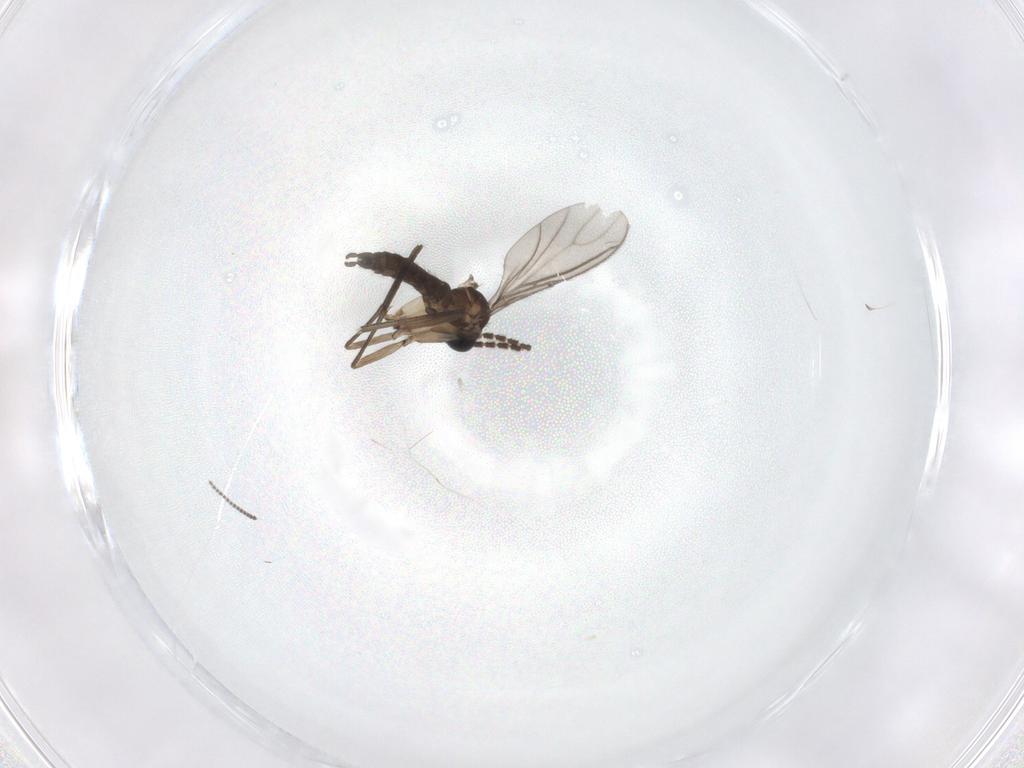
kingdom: Animalia
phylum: Arthropoda
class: Insecta
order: Diptera
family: Sciaridae
